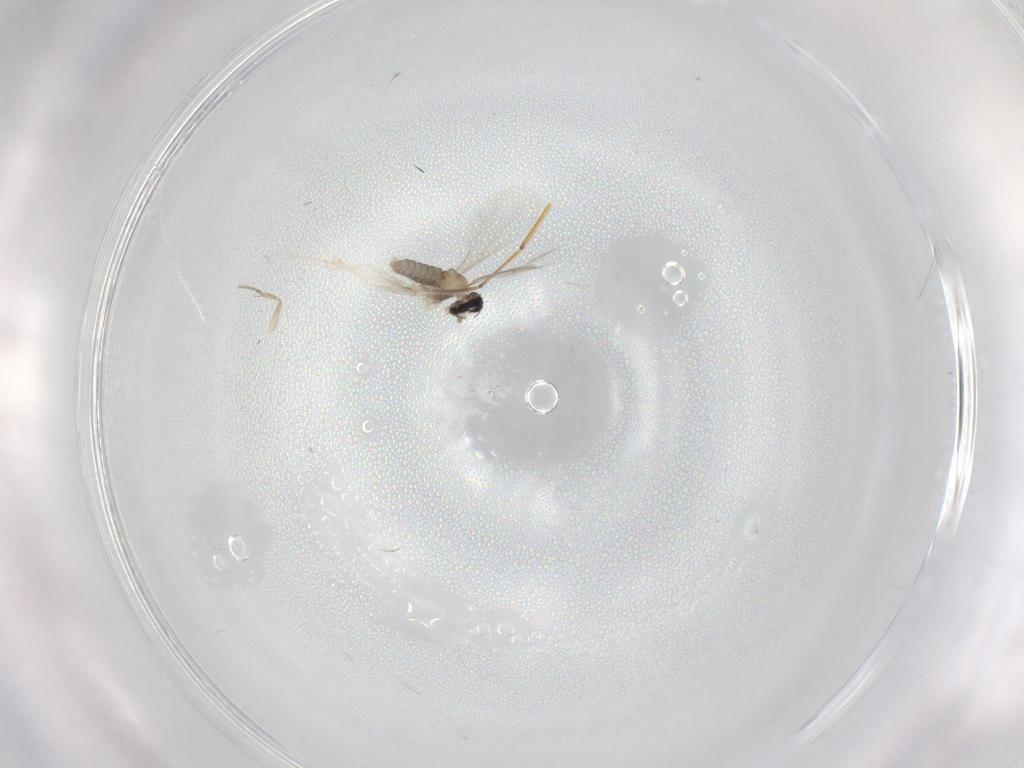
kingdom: Animalia
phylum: Arthropoda
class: Insecta
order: Diptera
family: Cecidomyiidae
